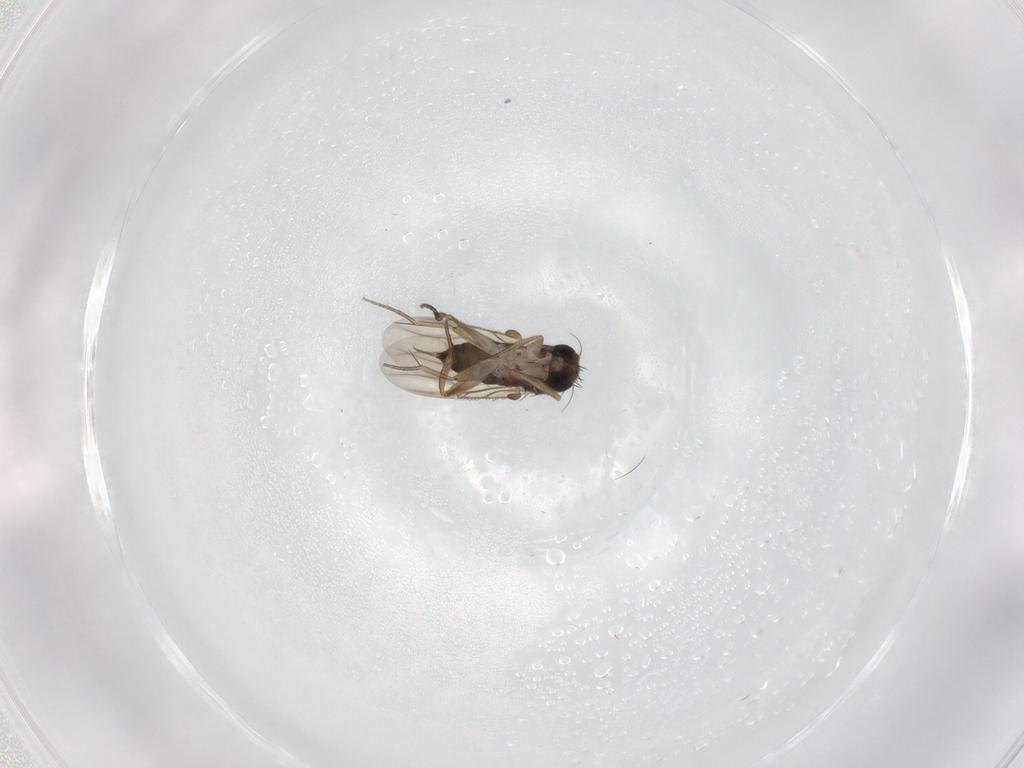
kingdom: Animalia
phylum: Arthropoda
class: Insecta
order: Diptera
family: Phoridae
